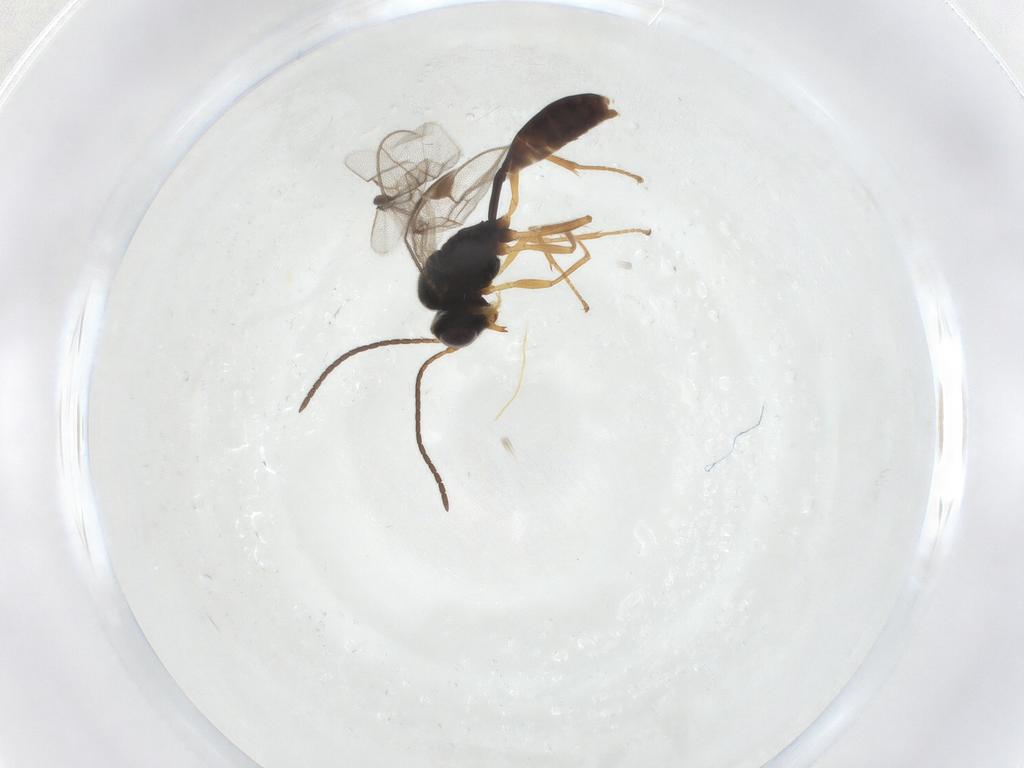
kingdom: Animalia
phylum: Arthropoda
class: Insecta
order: Hymenoptera
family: Ichneumonidae
